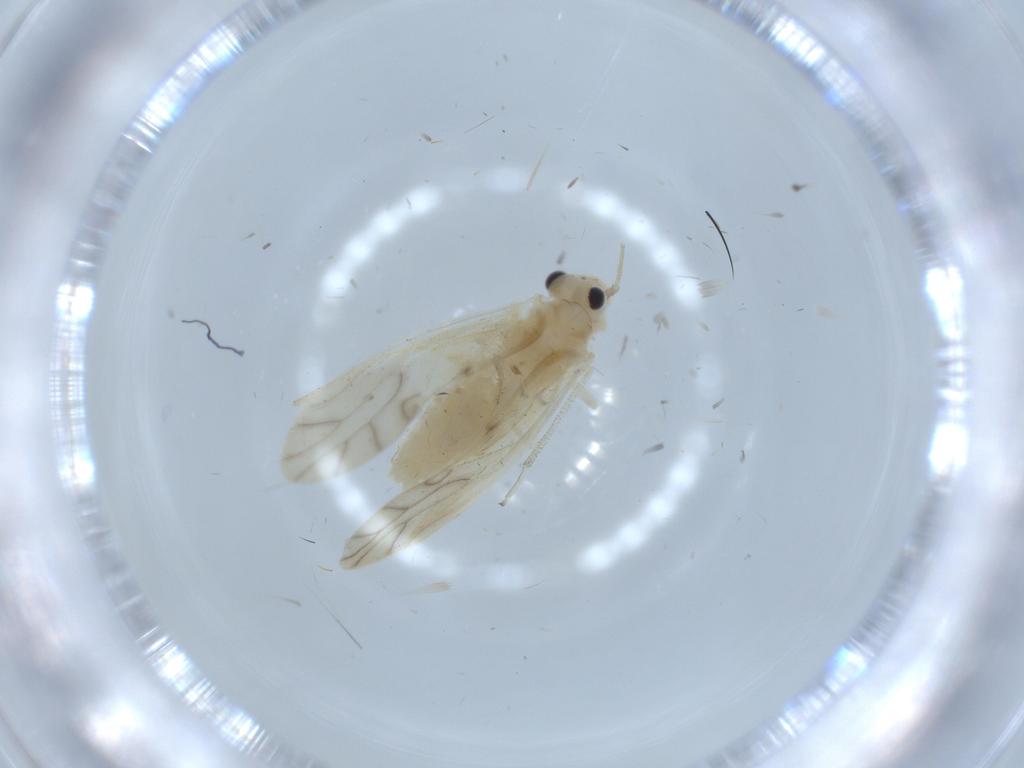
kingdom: Animalia
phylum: Arthropoda
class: Insecta
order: Psocodea
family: Caeciliusidae
